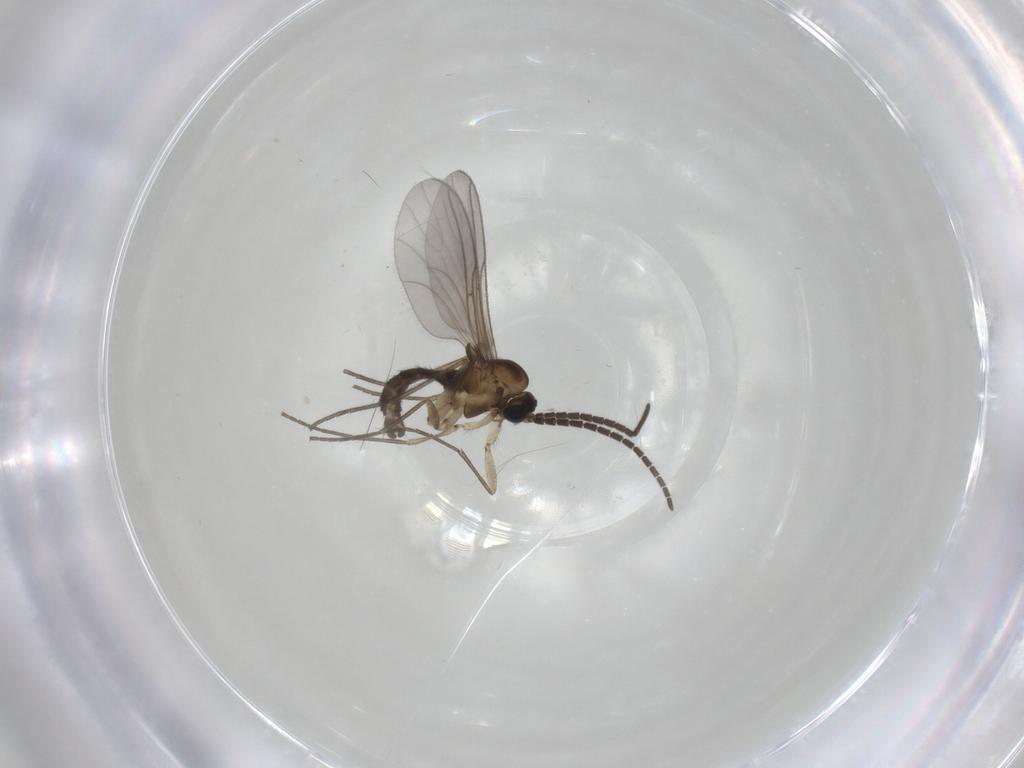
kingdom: Animalia
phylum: Arthropoda
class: Insecta
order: Diptera
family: Sciaridae
